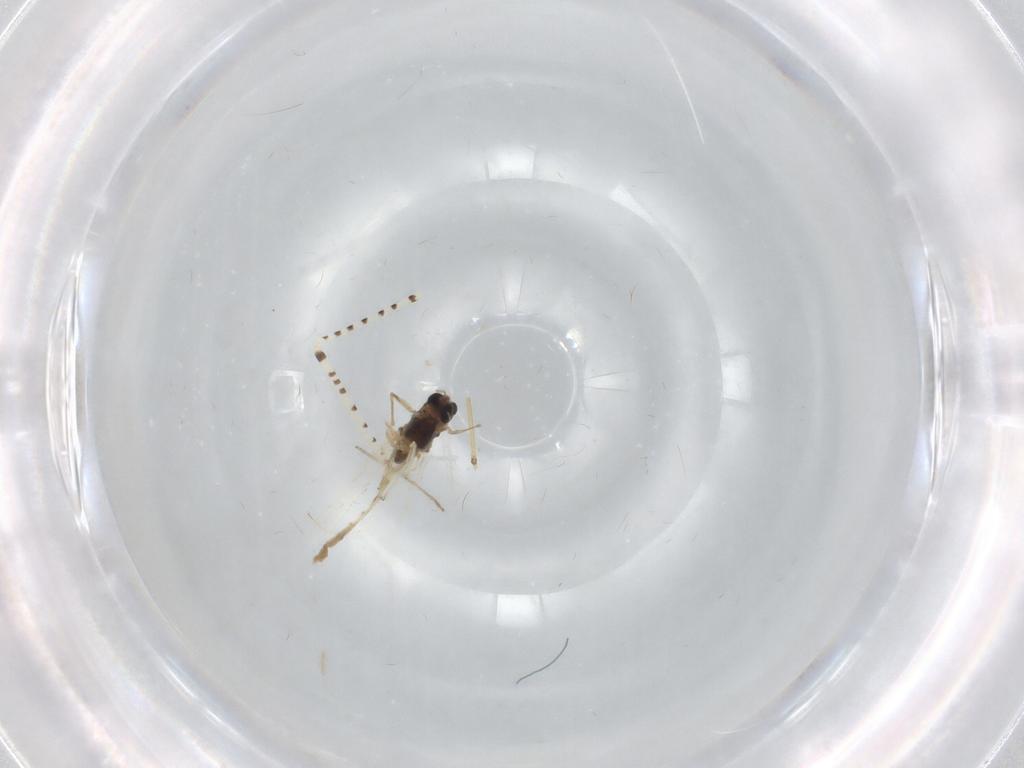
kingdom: Animalia
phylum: Arthropoda
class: Insecta
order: Diptera
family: Chironomidae
